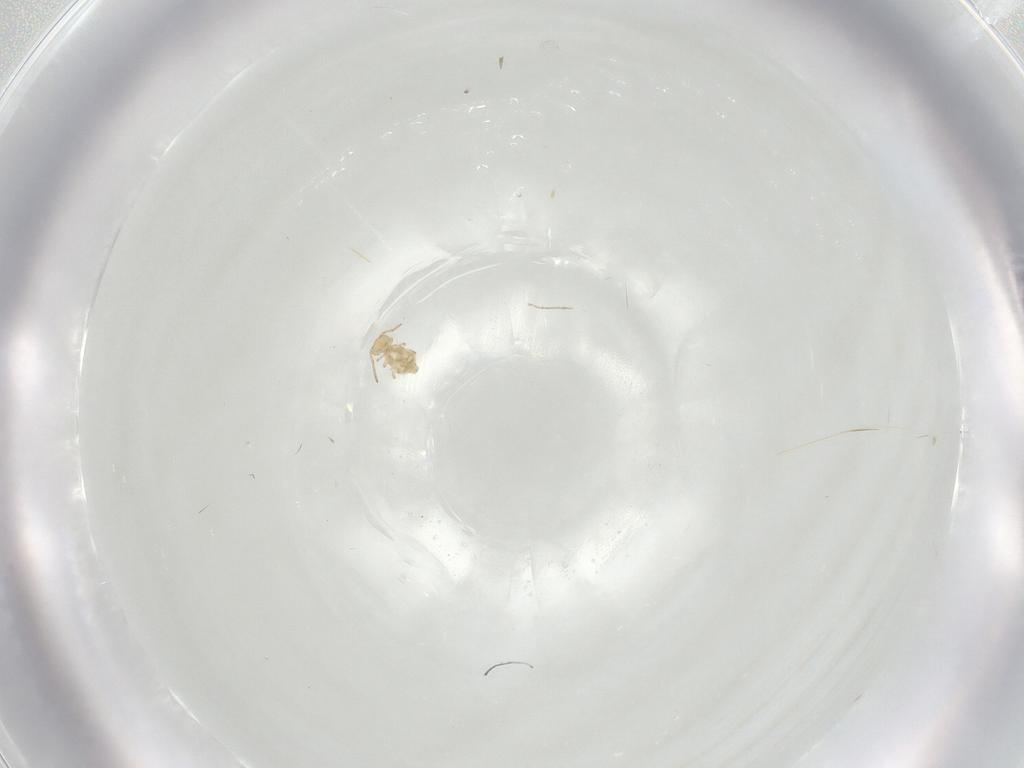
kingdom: Animalia
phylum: Arthropoda
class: Collembola
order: Symphypleona
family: Bourletiellidae
